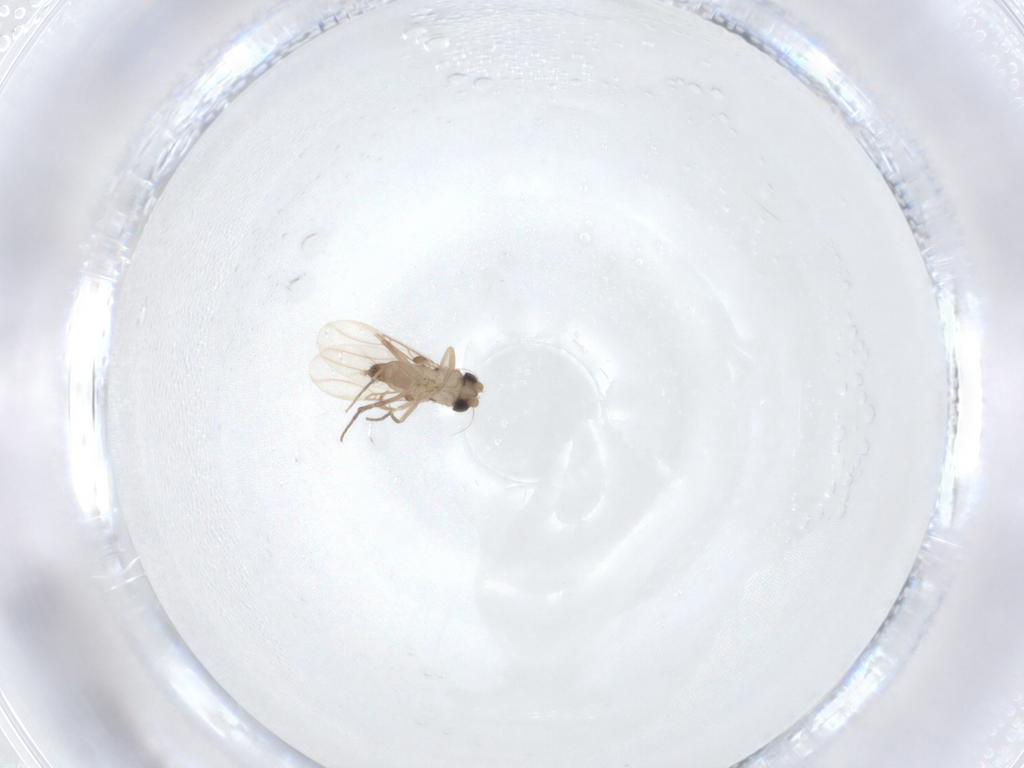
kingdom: Animalia
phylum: Arthropoda
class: Insecta
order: Diptera
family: Phoridae
